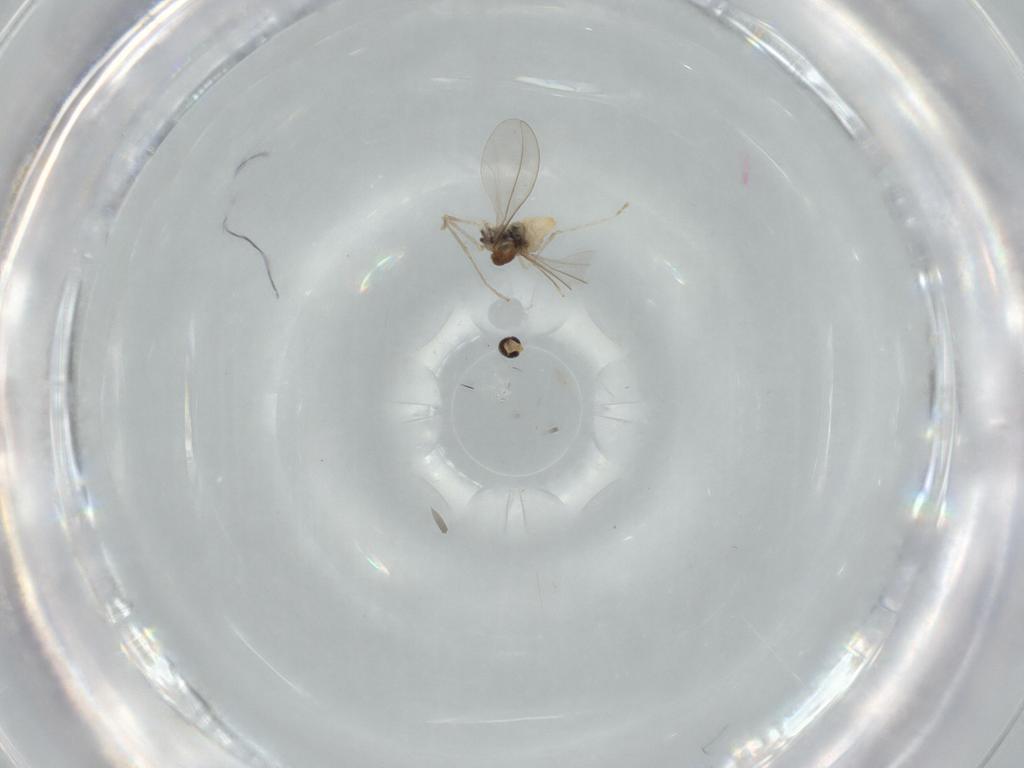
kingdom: Animalia
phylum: Arthropoda
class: Insecta
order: Diptera
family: Cecidomyiidae
